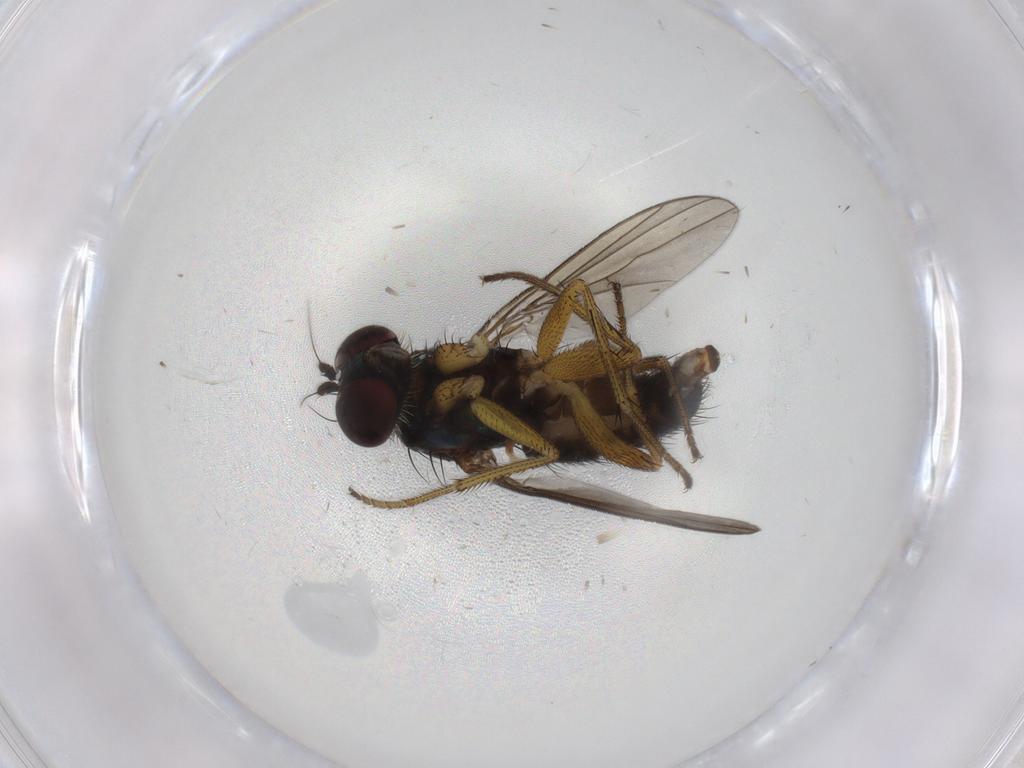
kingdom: Animalia
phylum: Arthropoda
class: Insecta
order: Diptera
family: Dolichopodidae
